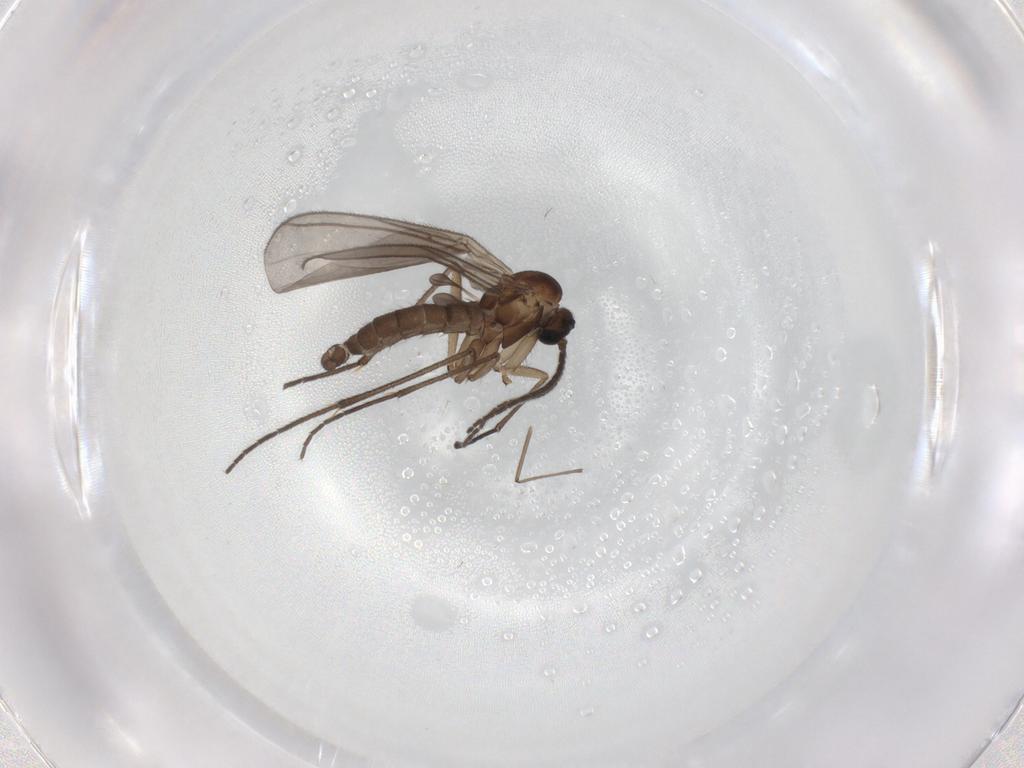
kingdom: Animalia
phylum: Arthropoda
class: Insecta
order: Diptera
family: Sciaridae
